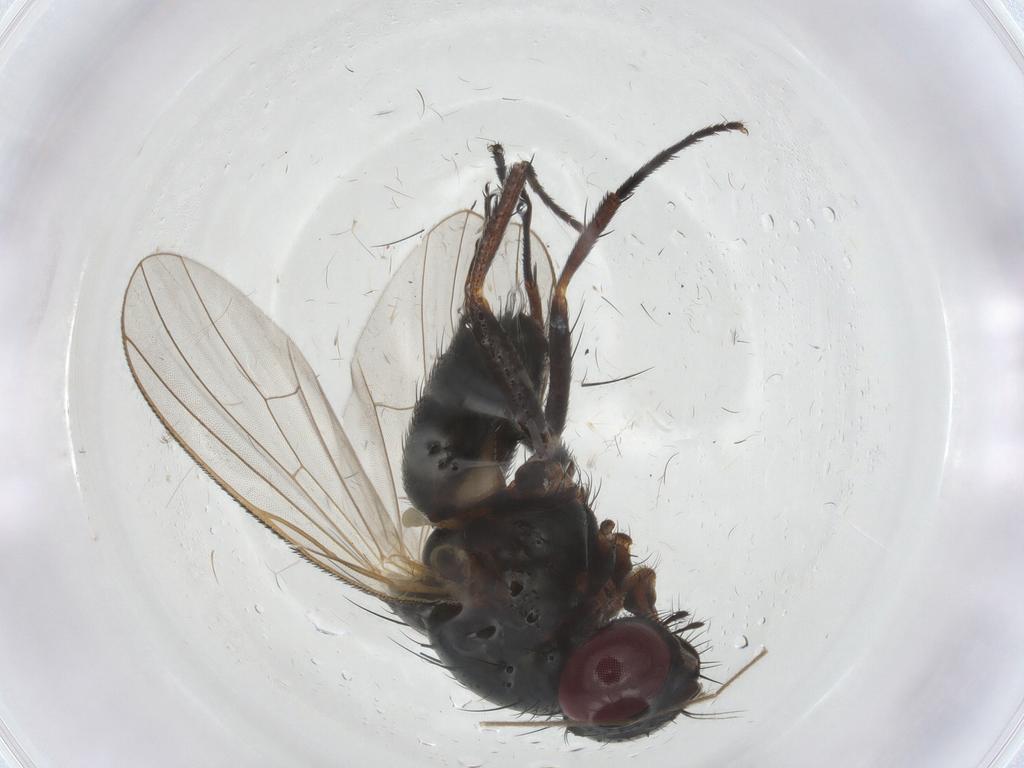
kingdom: Animalia
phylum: Arthropoda
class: Insecta
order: Diptera
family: Fannia
